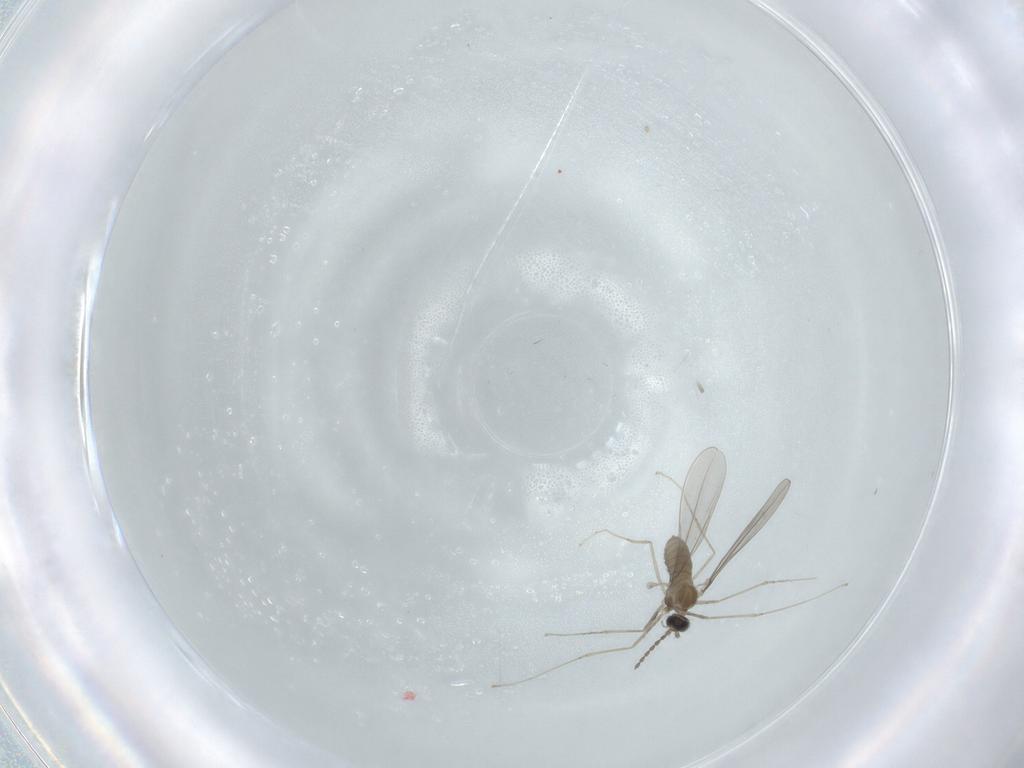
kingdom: Animalia
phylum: Arthropoda
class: Insecta
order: Diptera
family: Cecidomyiidae
